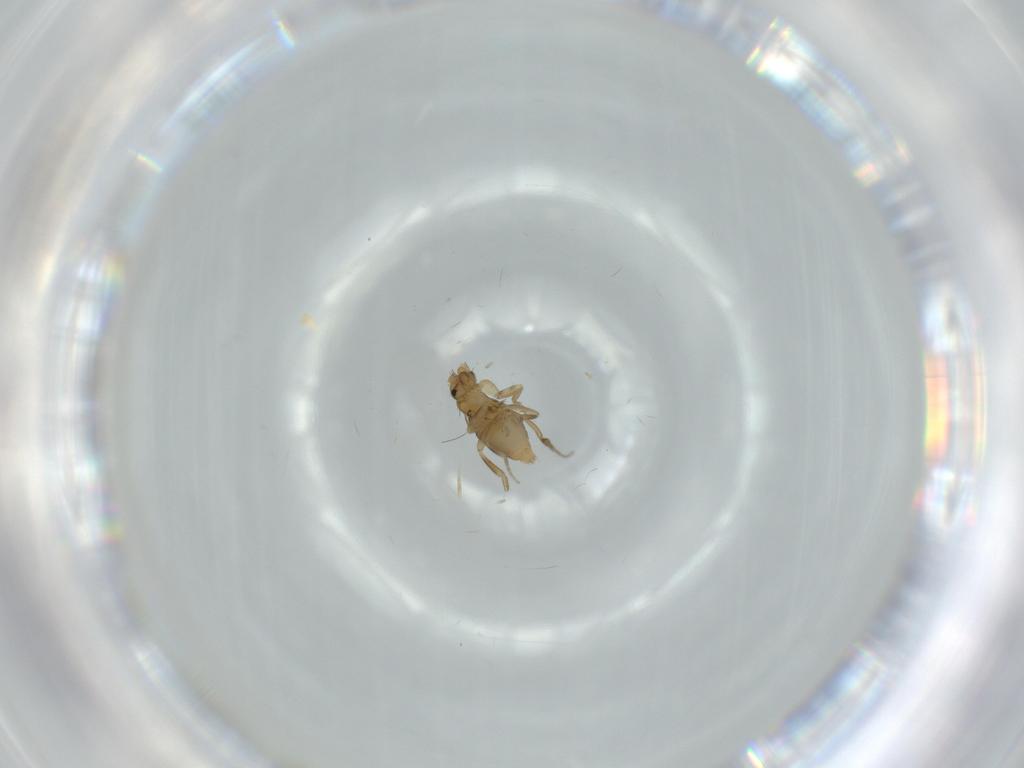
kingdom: Animalia
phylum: Arthropoda
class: Insecta
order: Diptera
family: Phoridae
